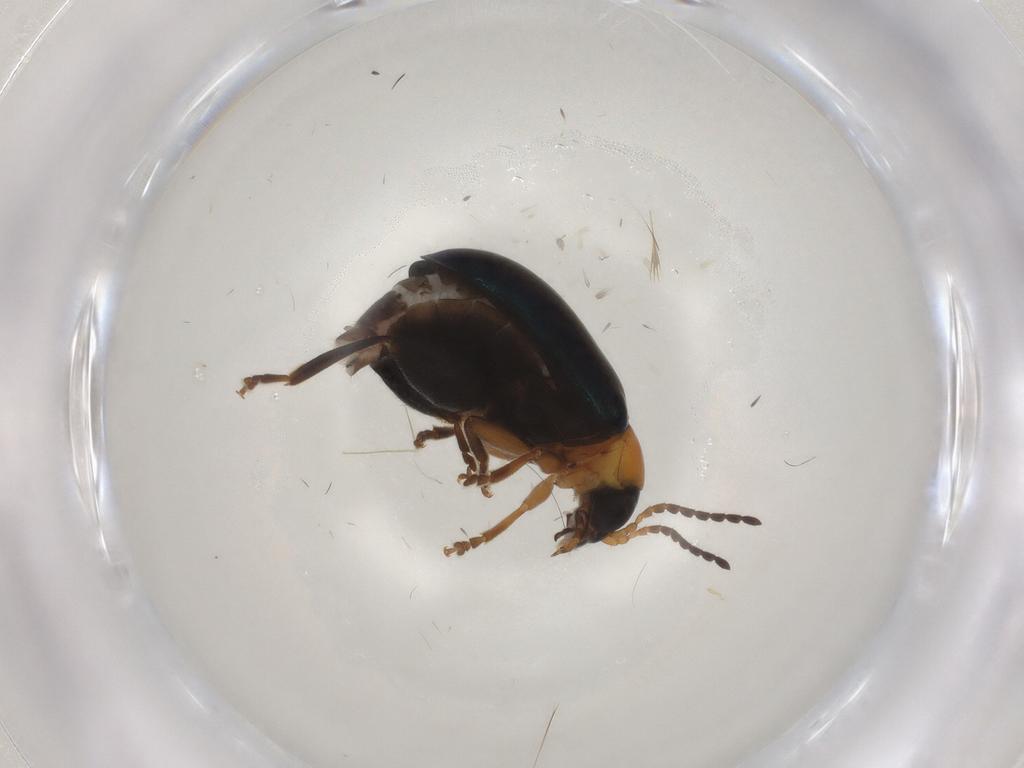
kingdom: Animalia
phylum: Arthropoda
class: Insecta
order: Coleoptera
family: Chrysomelidae
